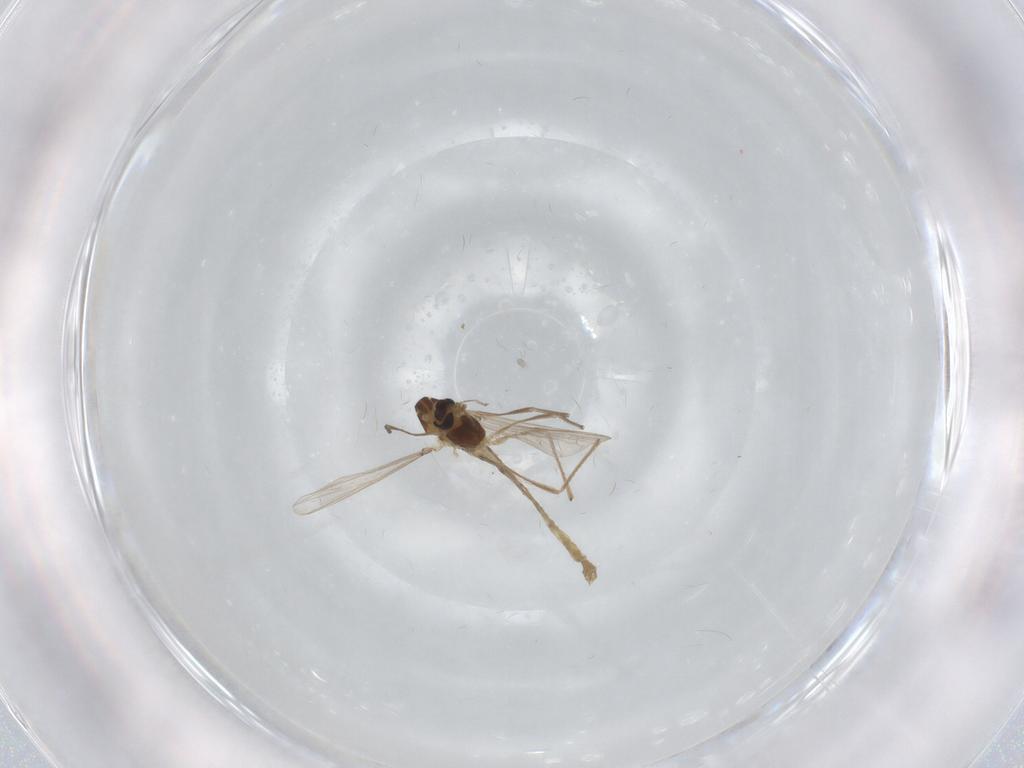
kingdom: Animalia
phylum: Arthropoda
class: Insecta
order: Diptera
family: Chironomidae
